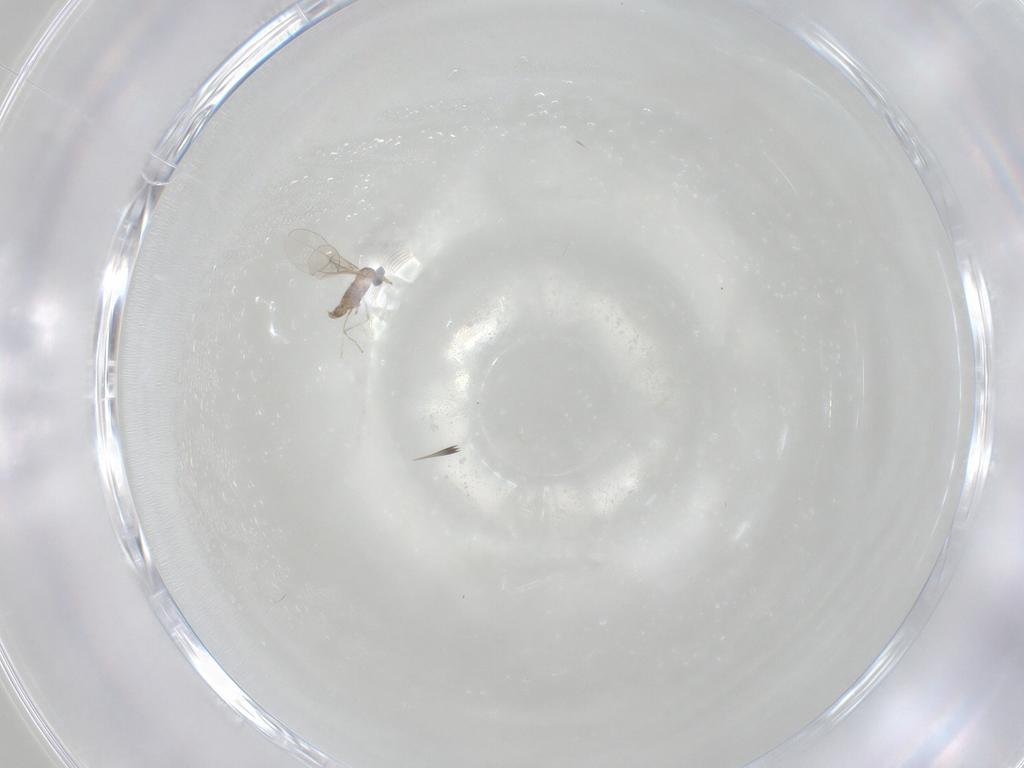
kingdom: Animalia
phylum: Arthropoda
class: Insecta
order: Diptera
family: Cecidomyiidae
